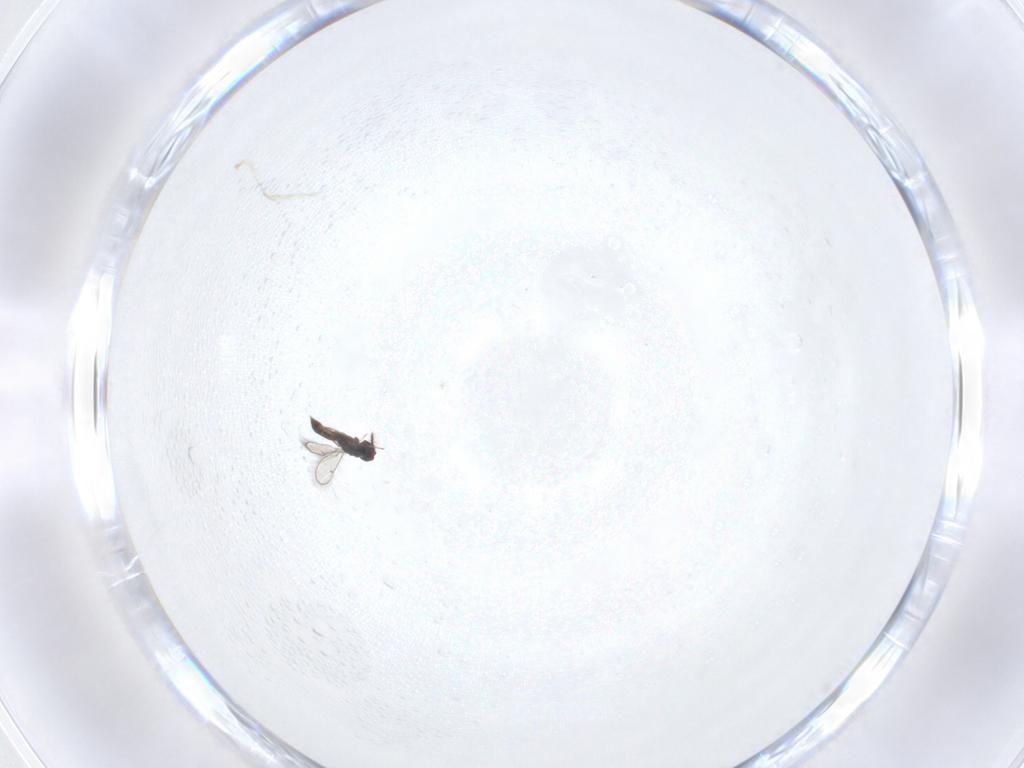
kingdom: Animalia
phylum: Arthropoda
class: Insecta
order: Hymenoptera
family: Eulophidae
